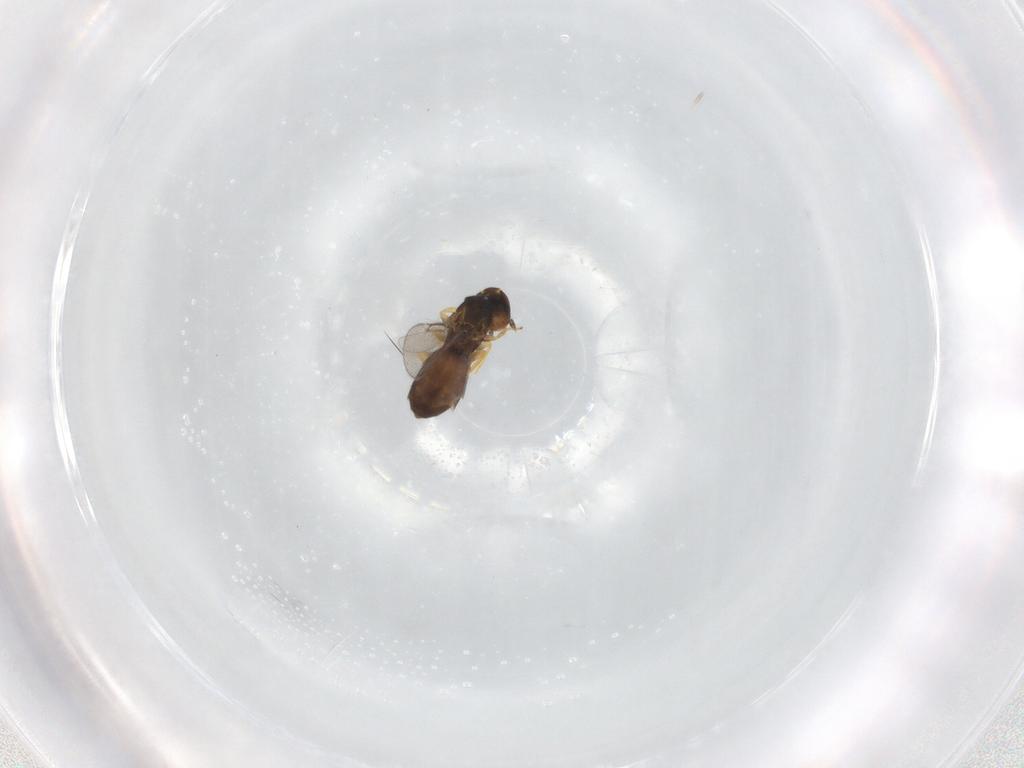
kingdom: Animalia
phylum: Arthropoda
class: Insecta
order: Hymenoptera
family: Eulophidae
